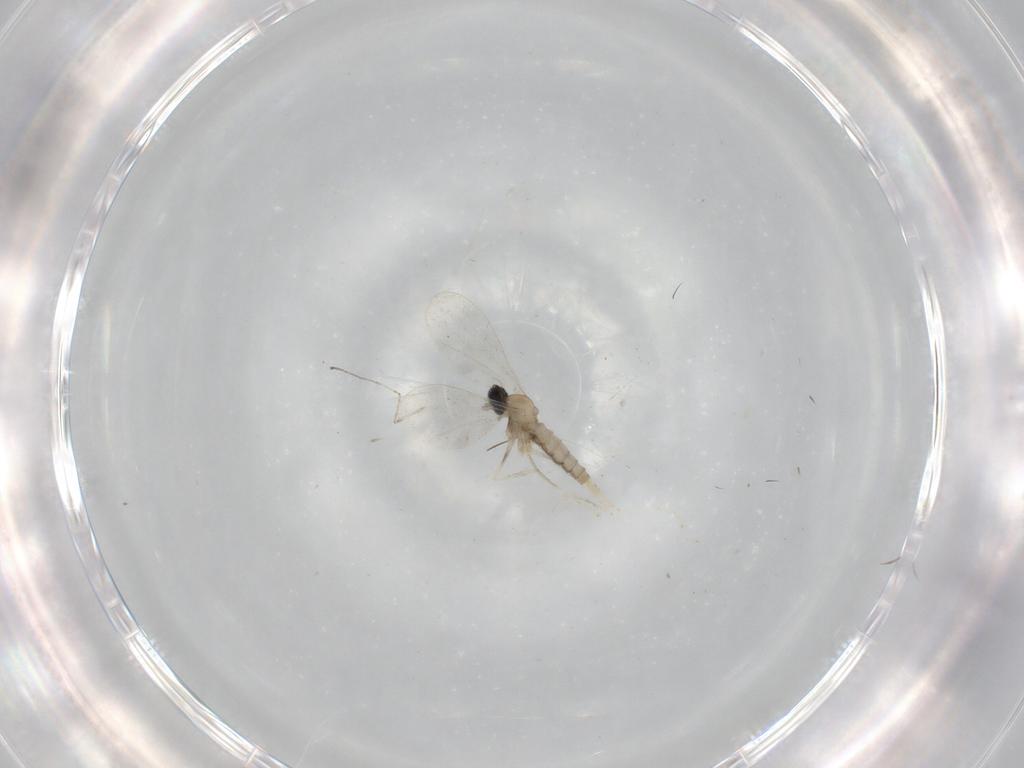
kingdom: Animalia
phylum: Arthropoda
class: Insecta
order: Diptera
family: Cecidomyiidae
